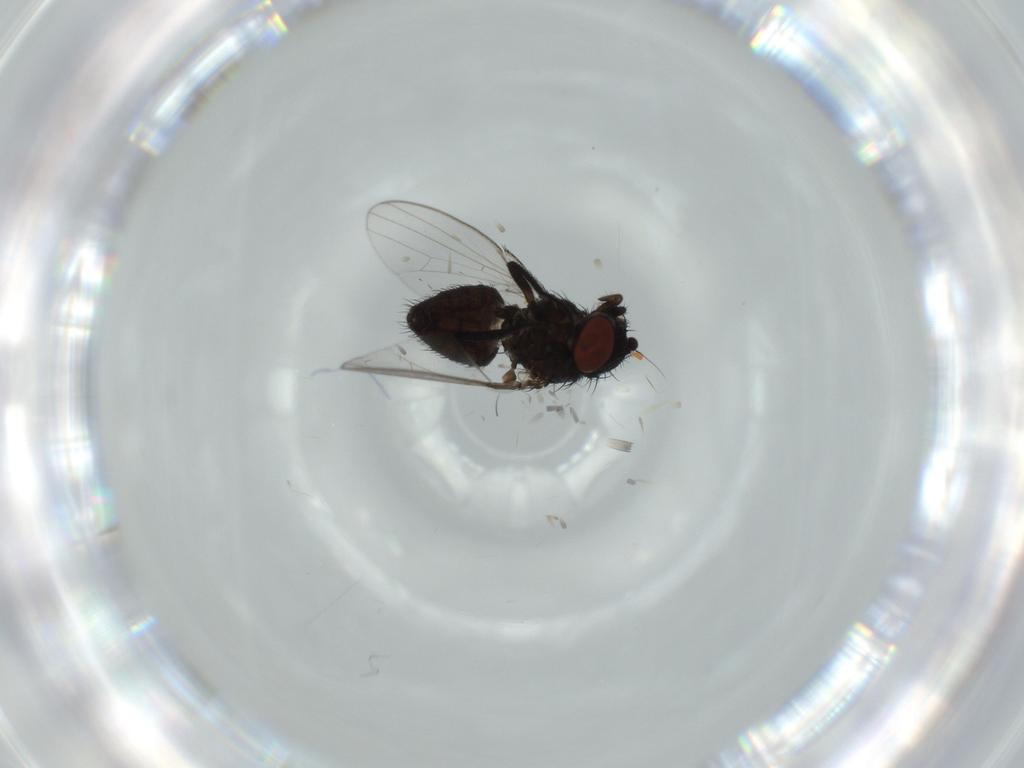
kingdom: Animalia
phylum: Arthropoda
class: Insecta
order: Diptera
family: Milichiidae
